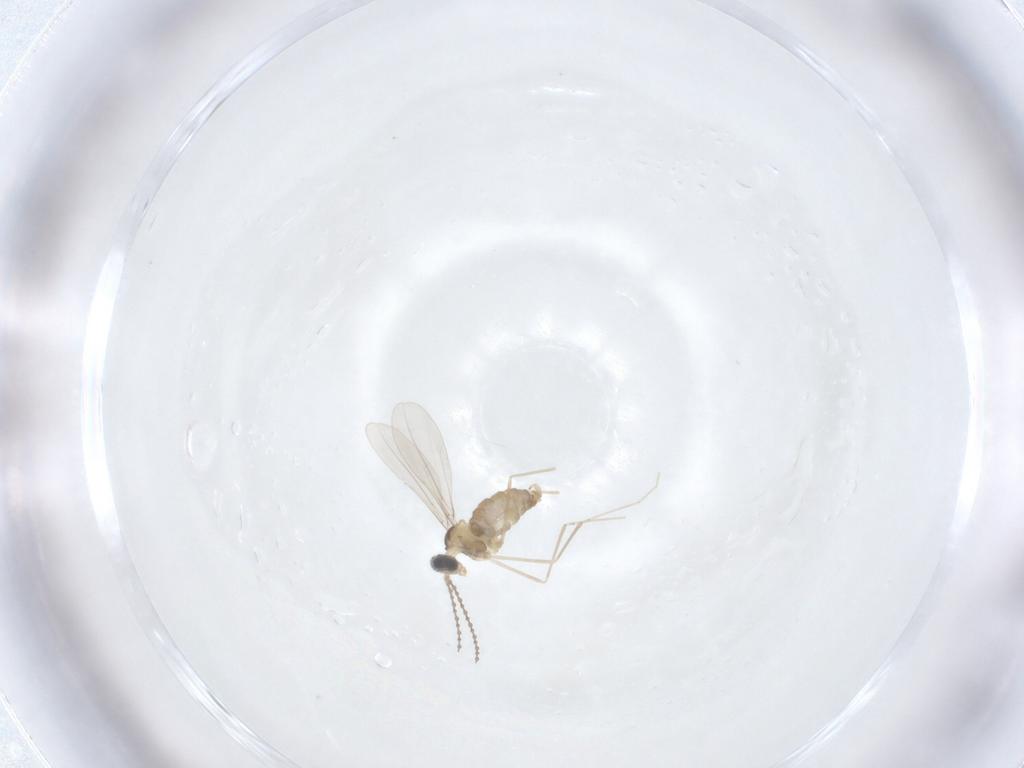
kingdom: Animalia
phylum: Arthropoda
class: Insecta
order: Diptera
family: Cecidomyiidae
